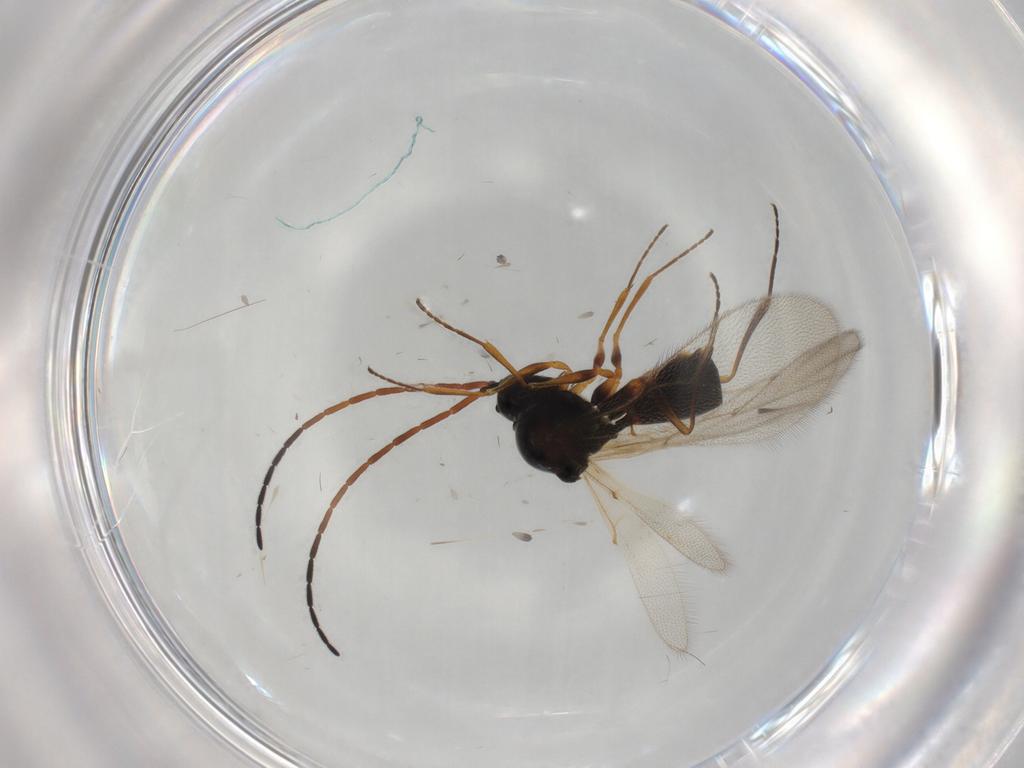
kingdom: Animalia
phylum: Arthropoda
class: Insecta
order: Hymenoptera
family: Figitidae
